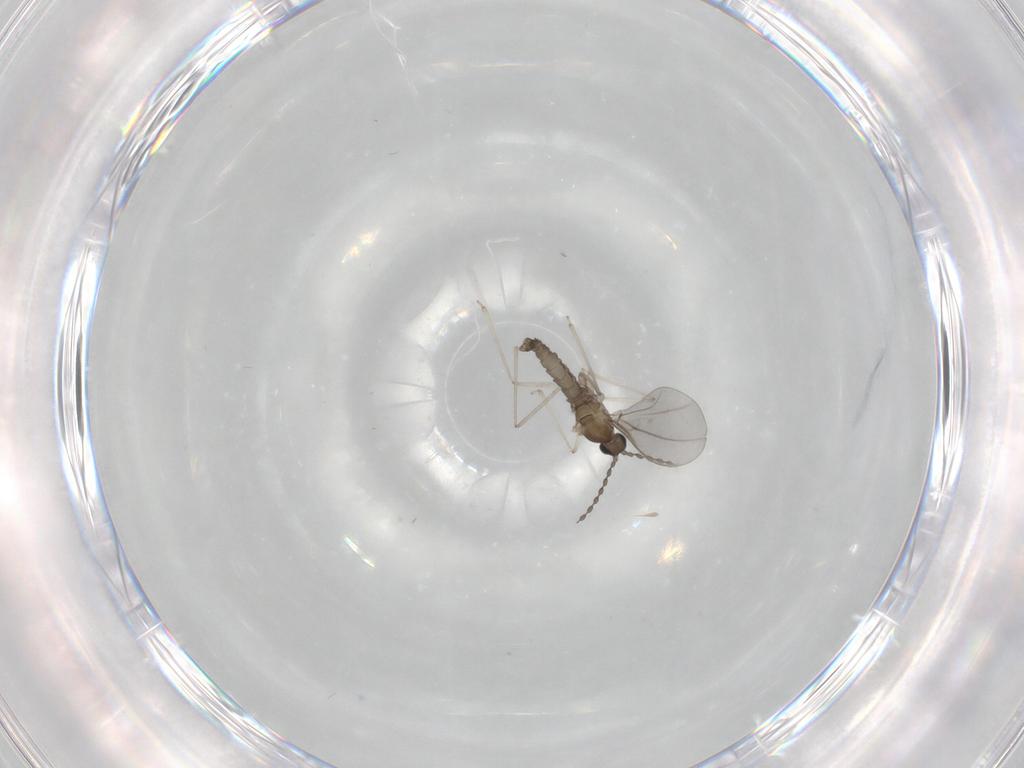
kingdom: Animalia
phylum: Arthropoda
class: Insecta
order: Diptera
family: Cecidomyiidae
